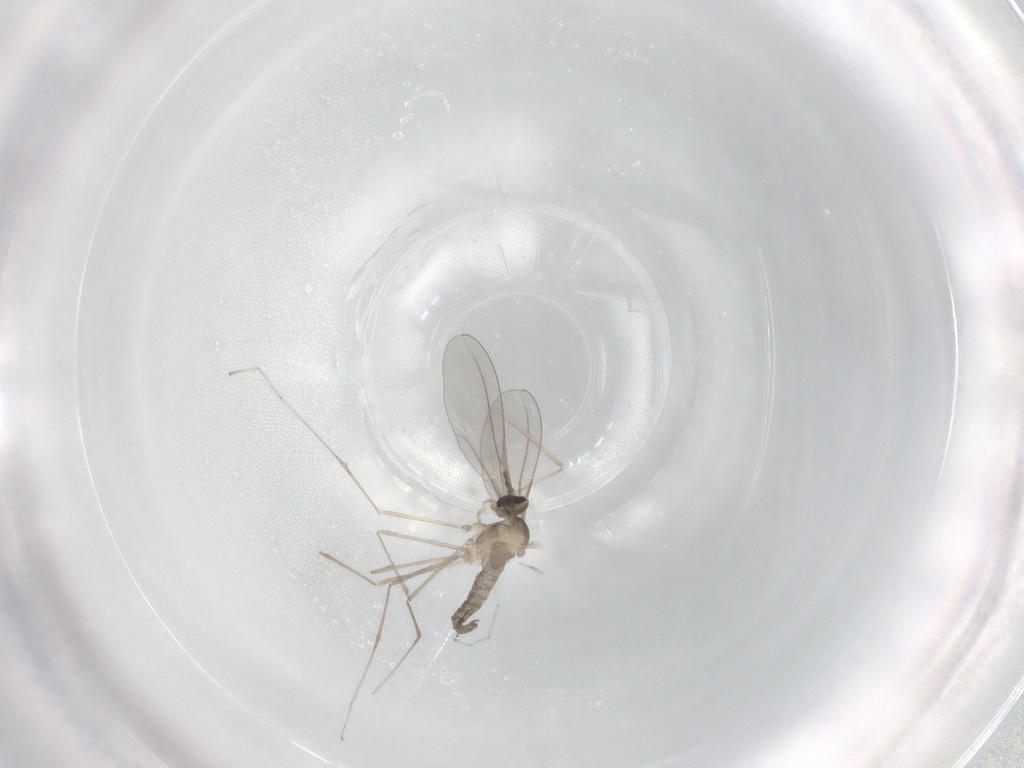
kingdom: Animalia
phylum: Arthropoda
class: Insecta
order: Diptera
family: Cecidomyiidae
